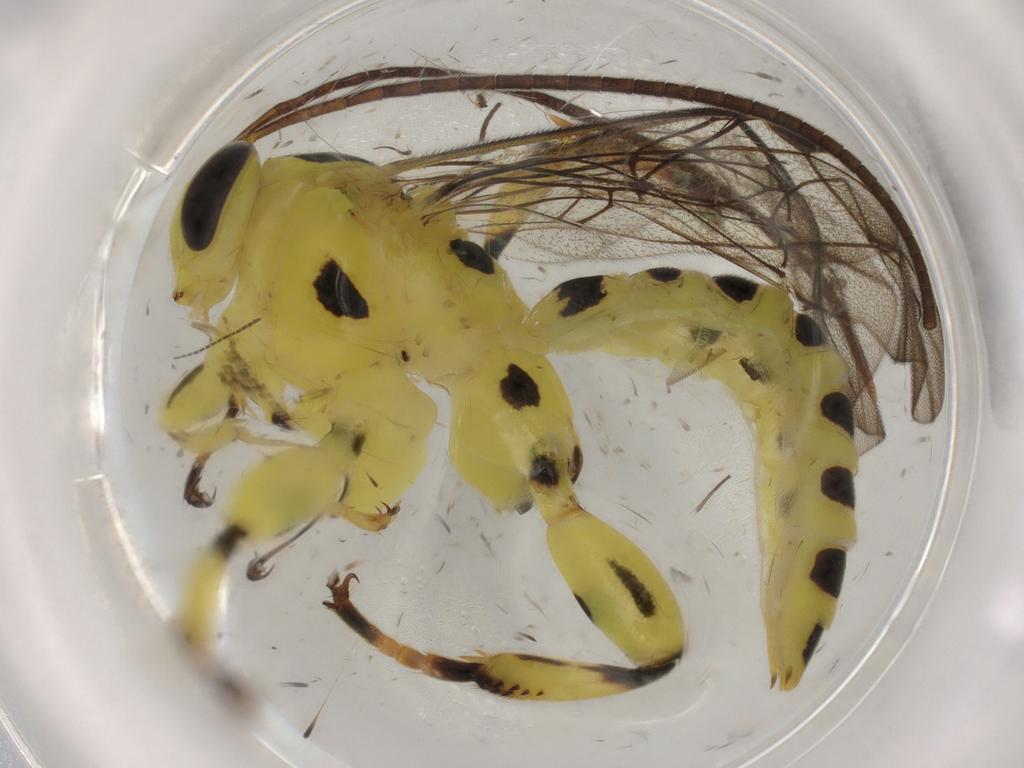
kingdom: Animalia
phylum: Arthropoda
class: Insecta
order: Hymenoptera
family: Ichneumonidae
